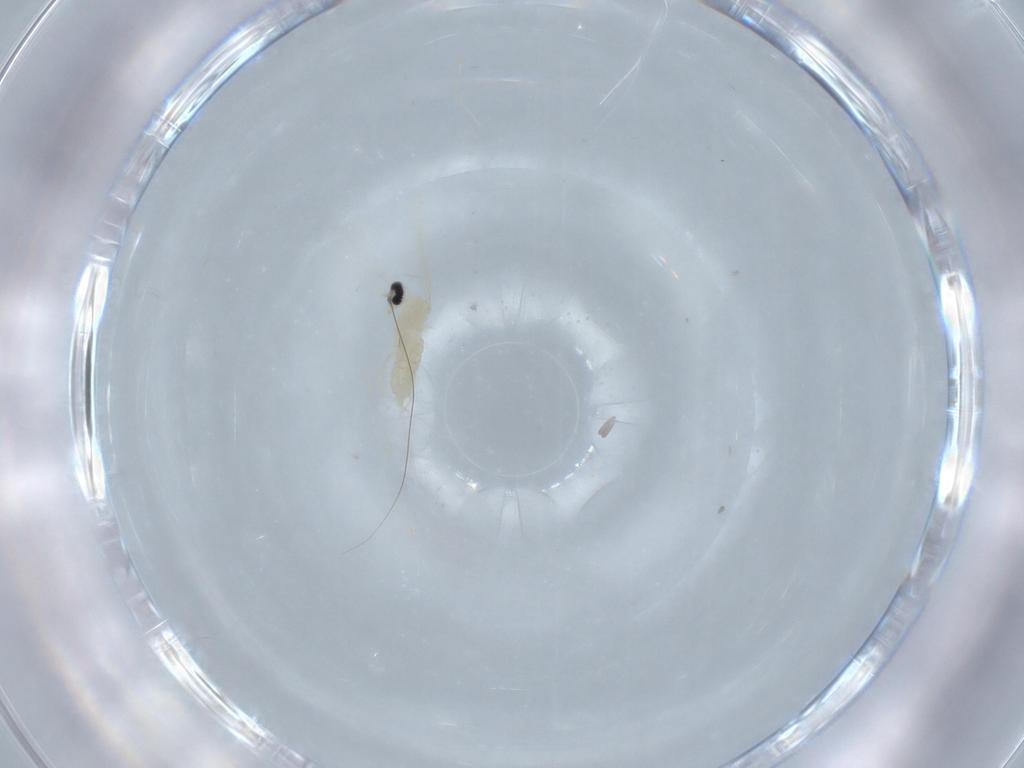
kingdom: Animalia
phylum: Arthropoda
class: Insecta
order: Diptera
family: Cecidomyiidae
